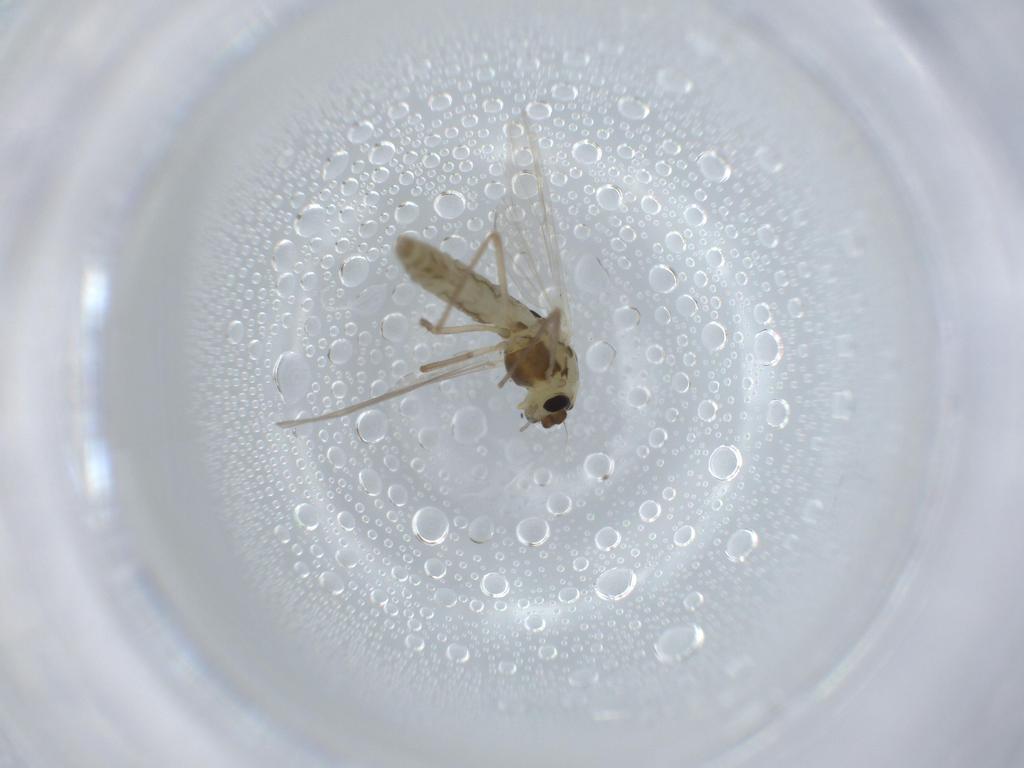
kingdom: Animalia
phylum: Arthropoda
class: Insecta
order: Diptera
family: Chironomidae
